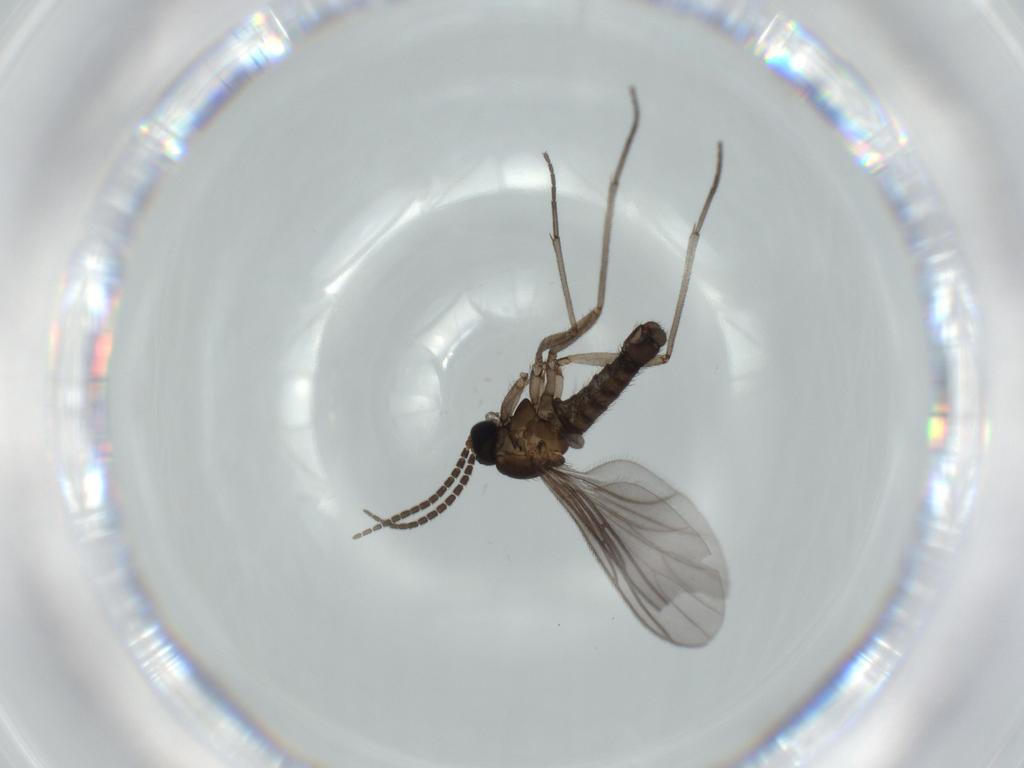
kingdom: Animalia
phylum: Arthropoda
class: Insecta
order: Diptera
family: Sciaridae
